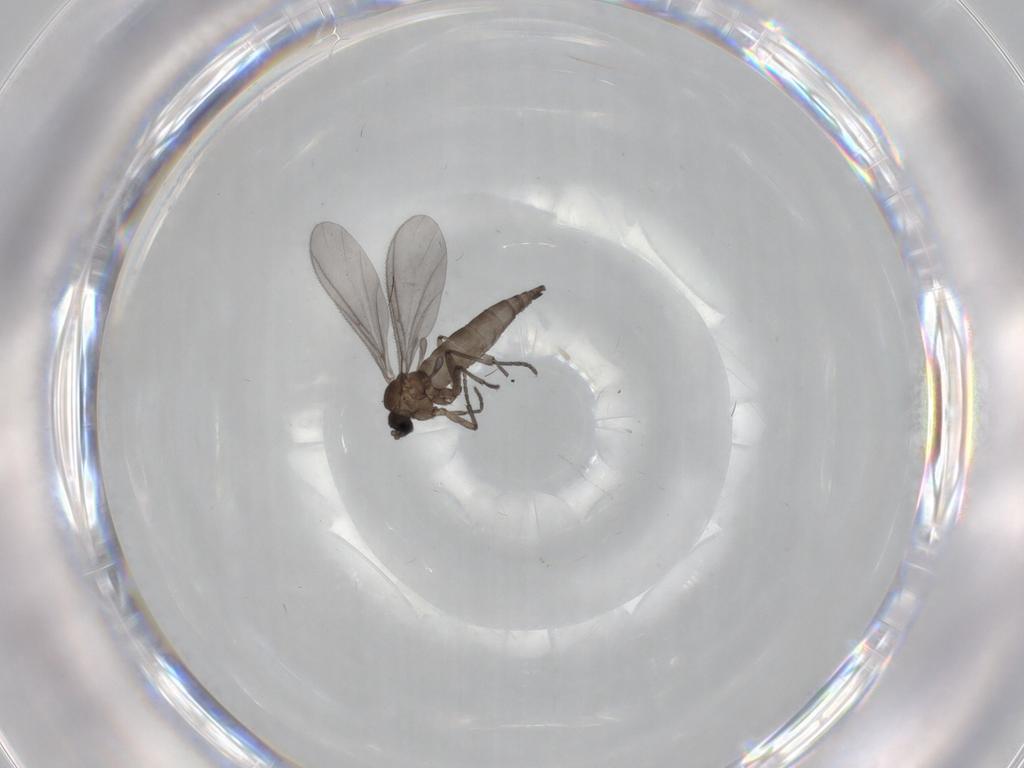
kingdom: Animalia
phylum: Arthropoda
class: Insecta
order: Diptera
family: Sciaridae
